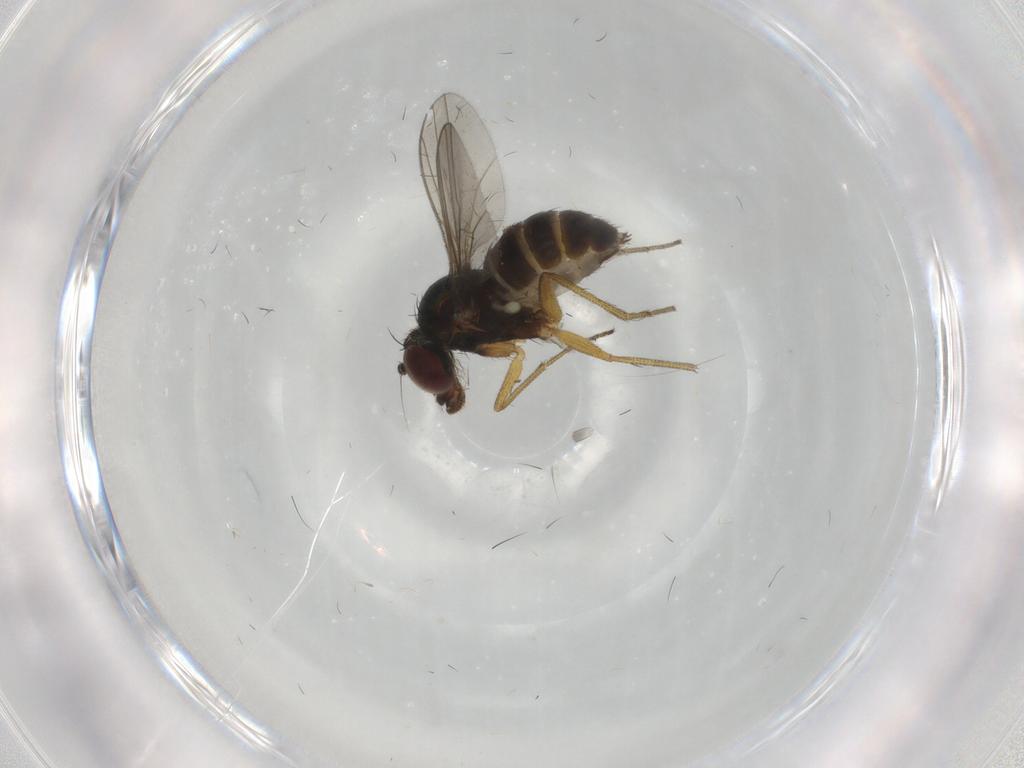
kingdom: Animalia
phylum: Arthropoda
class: Insecta
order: Diptera
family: Dolichopodidae
